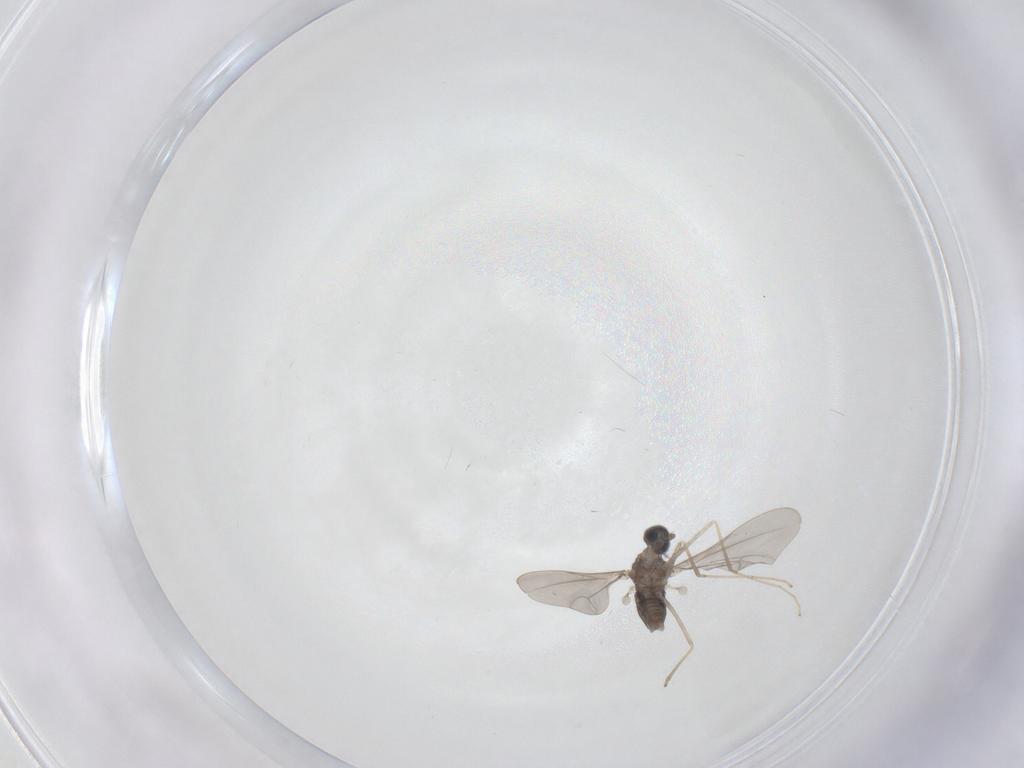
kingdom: Animalia
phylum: Arthropoda
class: Insecta
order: Diptera
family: Cecidomyiidae
